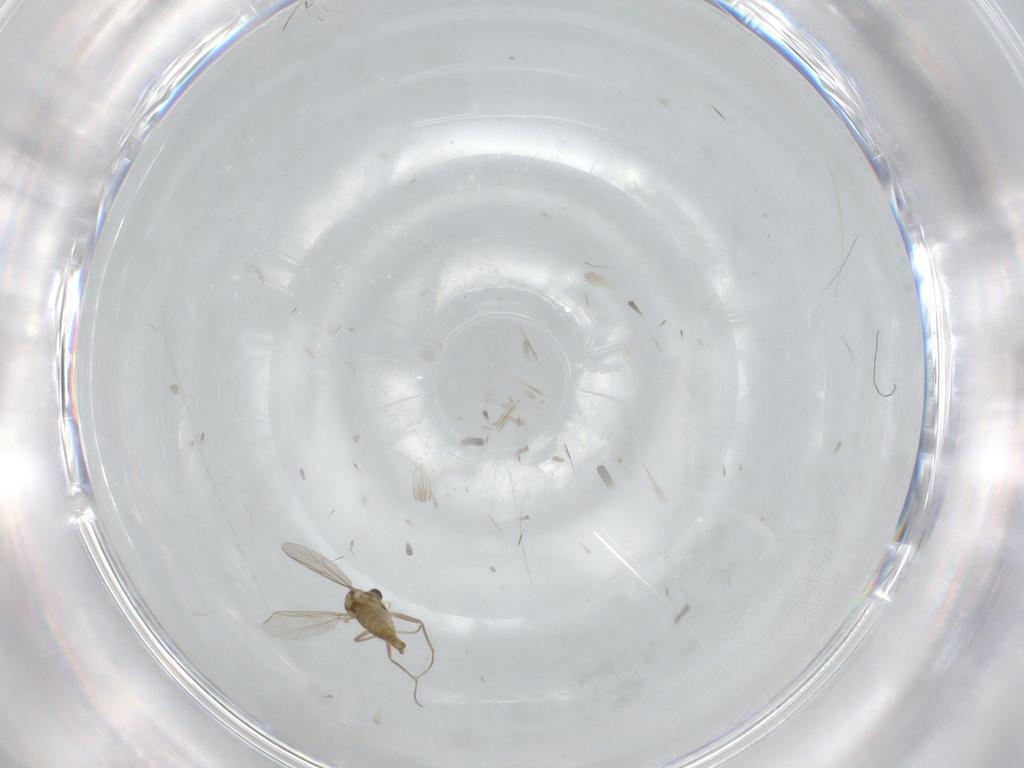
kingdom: Animalia
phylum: Arthropoda
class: Insecta
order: Diptera
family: Chironomidae
